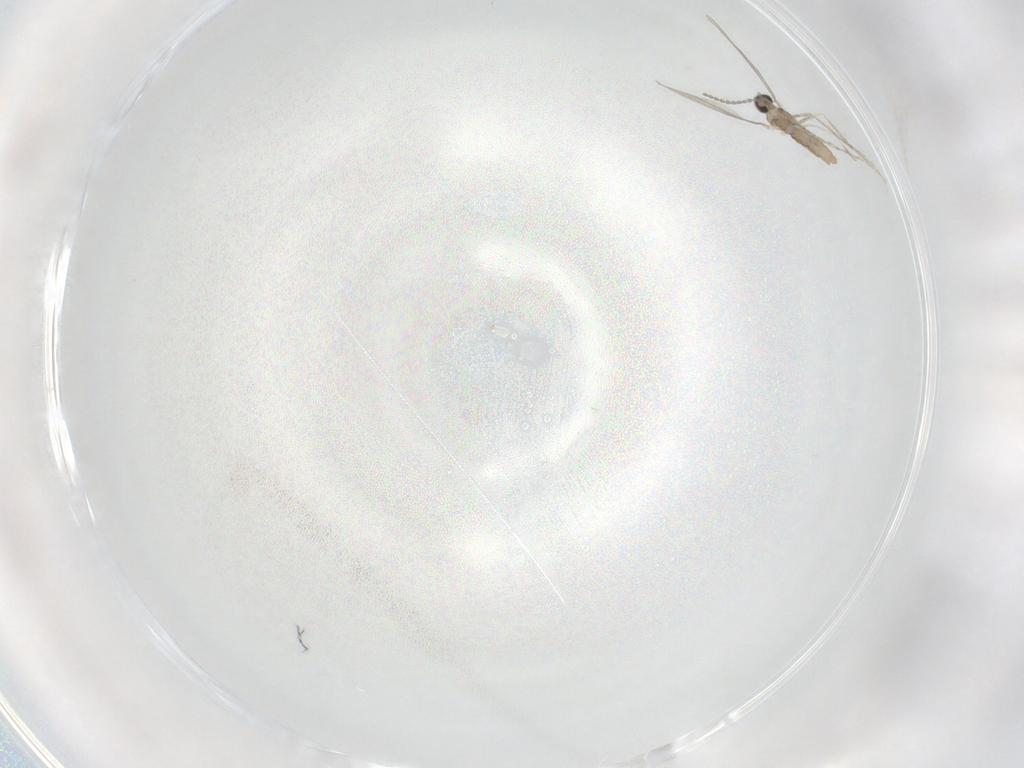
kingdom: Animalia
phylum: Arthropoda
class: Insecta
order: Diptera
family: Cecidomyiidae
